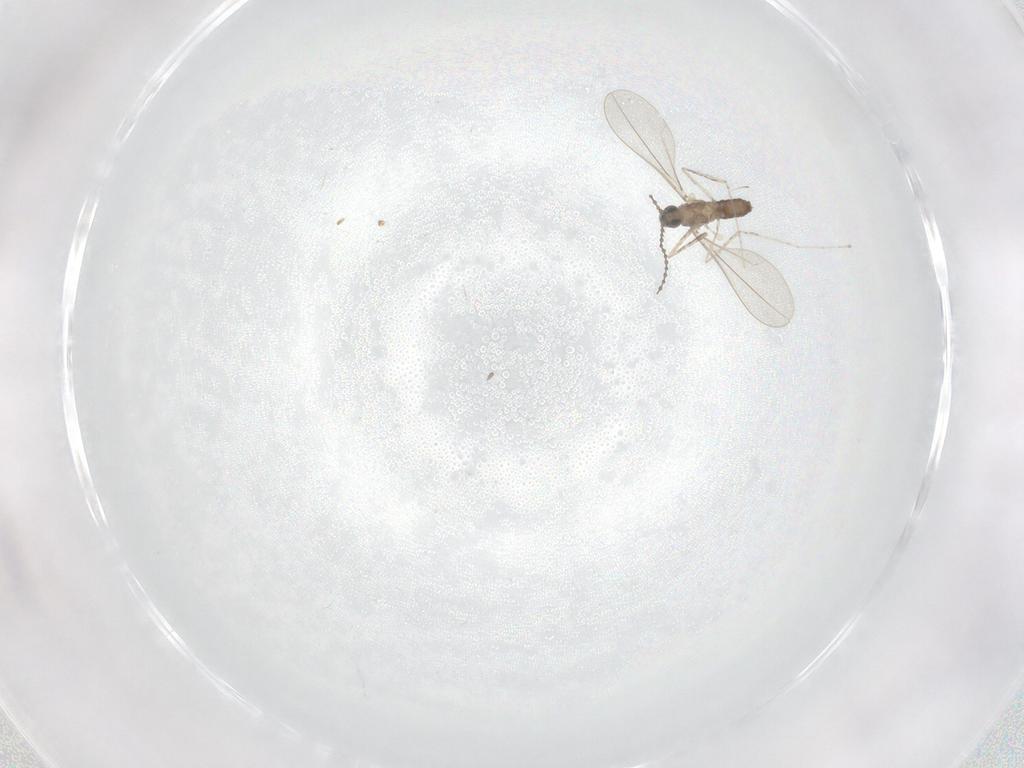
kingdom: Animalia
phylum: Arthropoda
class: Insecta
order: Diptera
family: Cecidomyiidae
